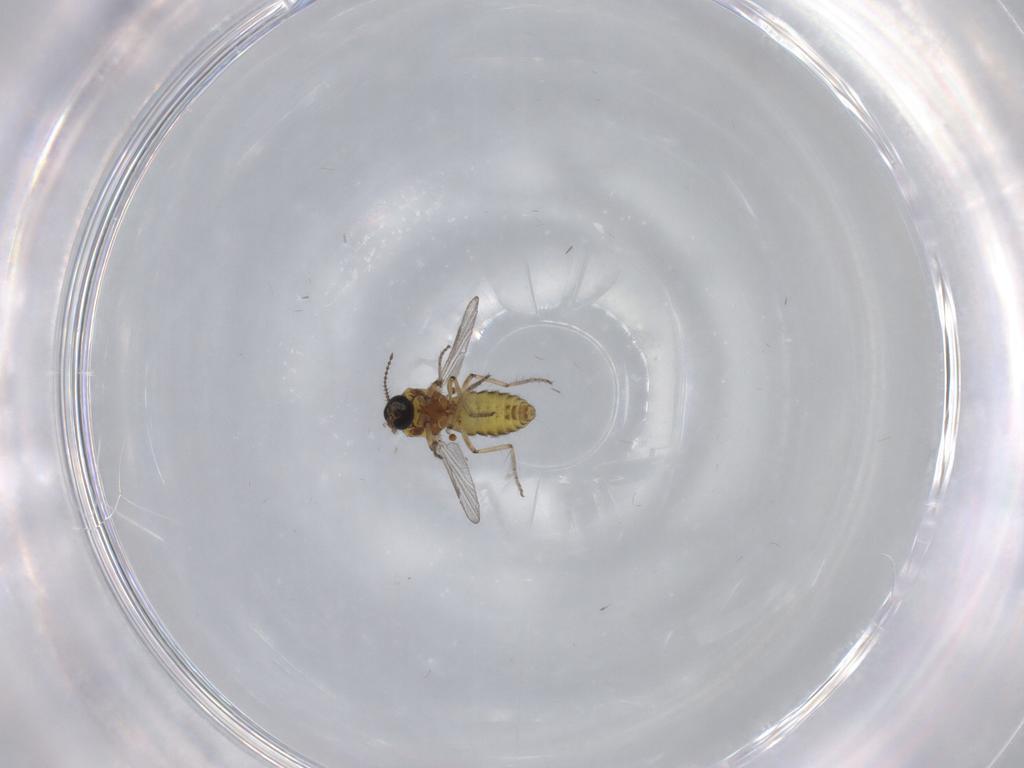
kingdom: Animalia
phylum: Arthropoda
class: Insecta
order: Diptera
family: Ceratopogonidae
